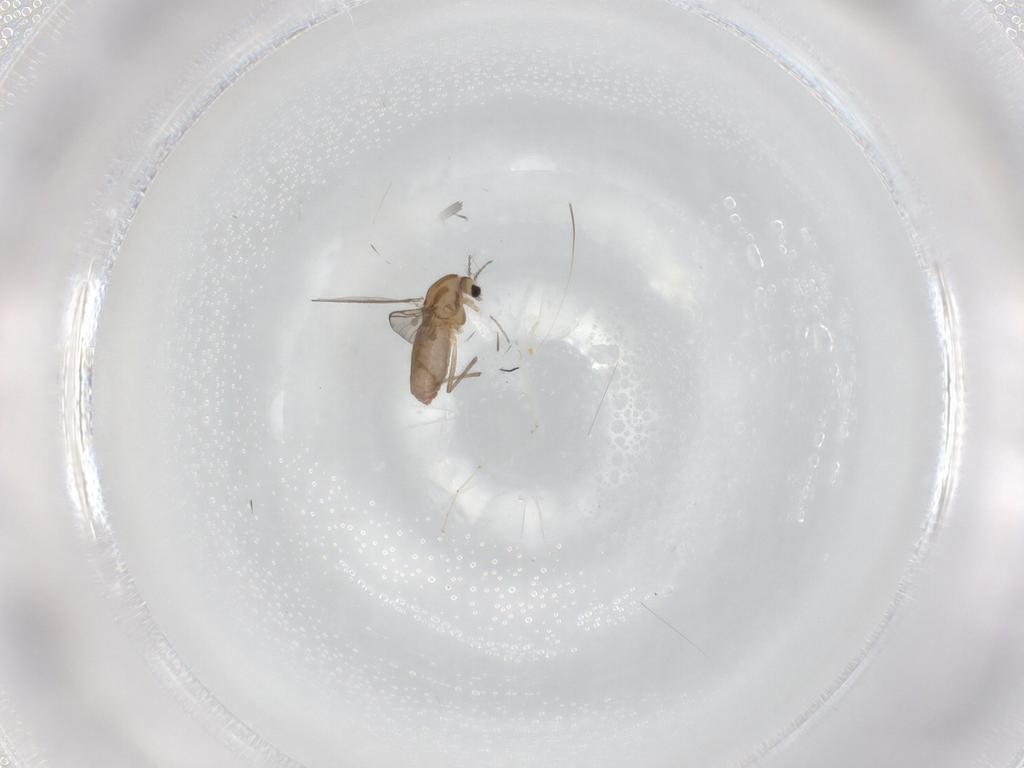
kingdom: Animalia
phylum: Arthropoda
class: Insecta
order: Diptera
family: Chironomidae
